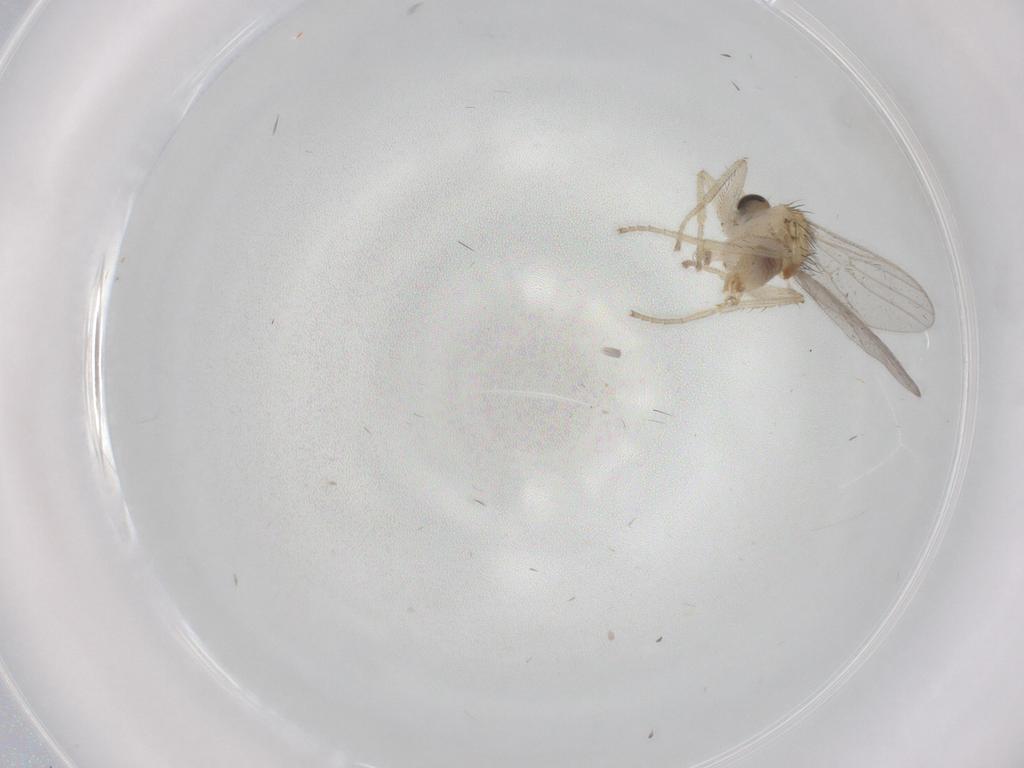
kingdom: Animalia
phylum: Arthropoda
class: Insecta
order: Diptera
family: Hybotidae
